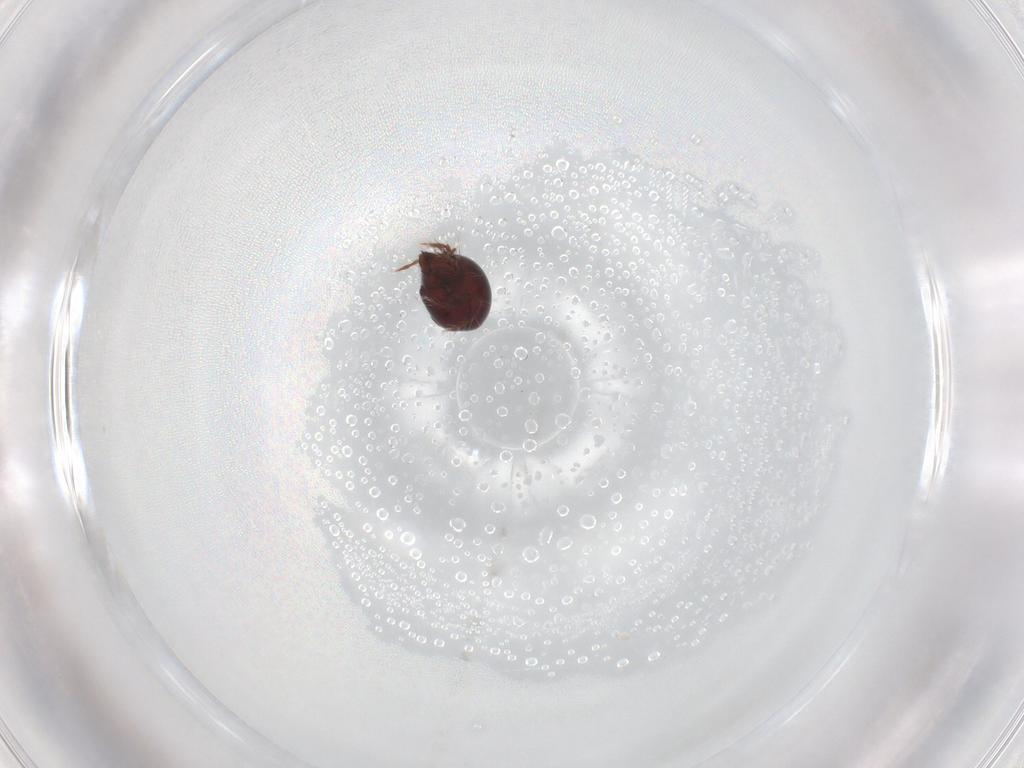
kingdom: Animalia
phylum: Arthropoda
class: Arachnida
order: Sarcoptiformes
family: Ceratoppiidae
